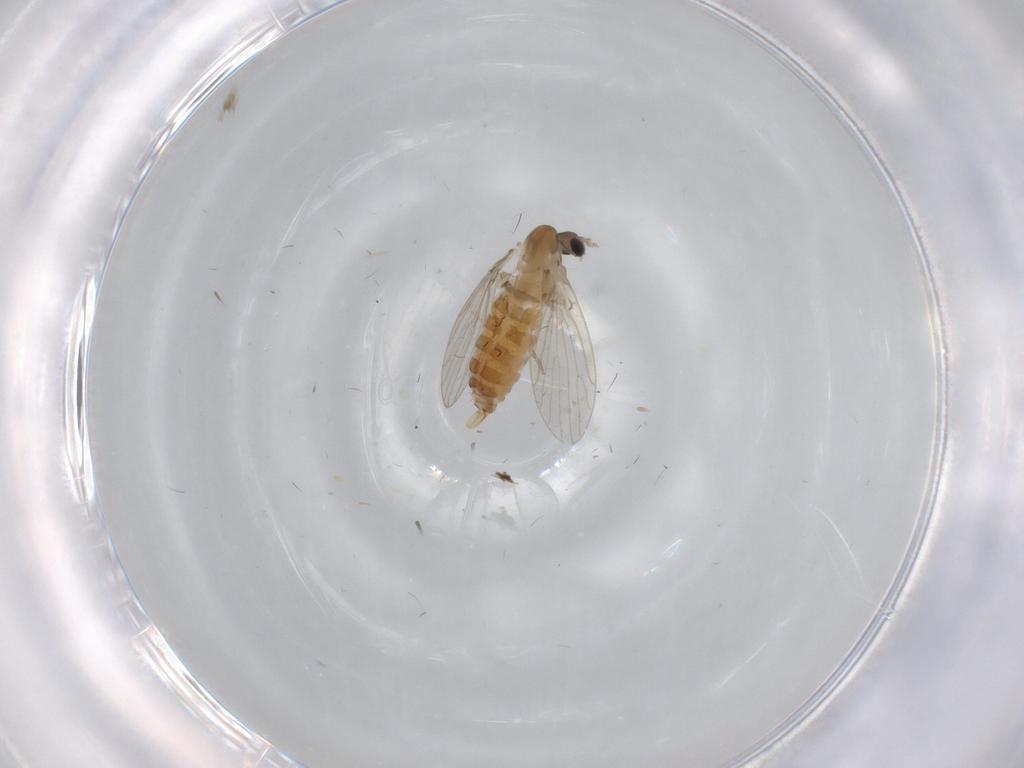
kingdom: Animalia
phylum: Arthropoda
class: Insecta
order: Diptera
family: Psychodidae
